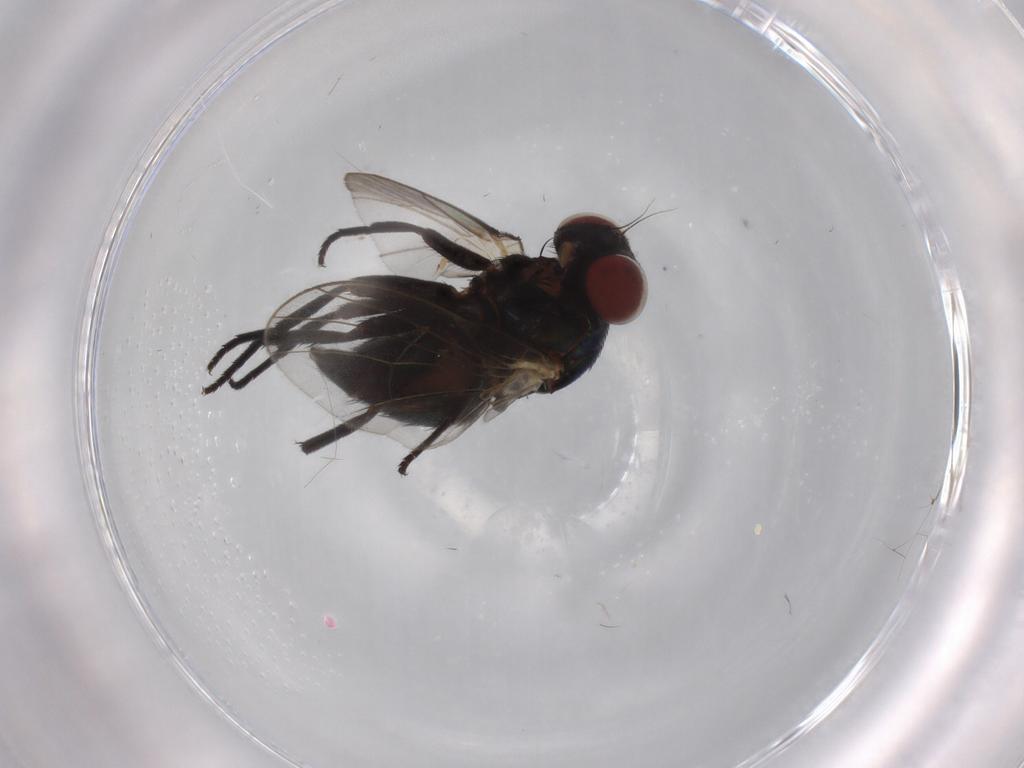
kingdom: Animalia
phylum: Arthropoda
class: Insecta
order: Diptera
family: Agromyzidae
